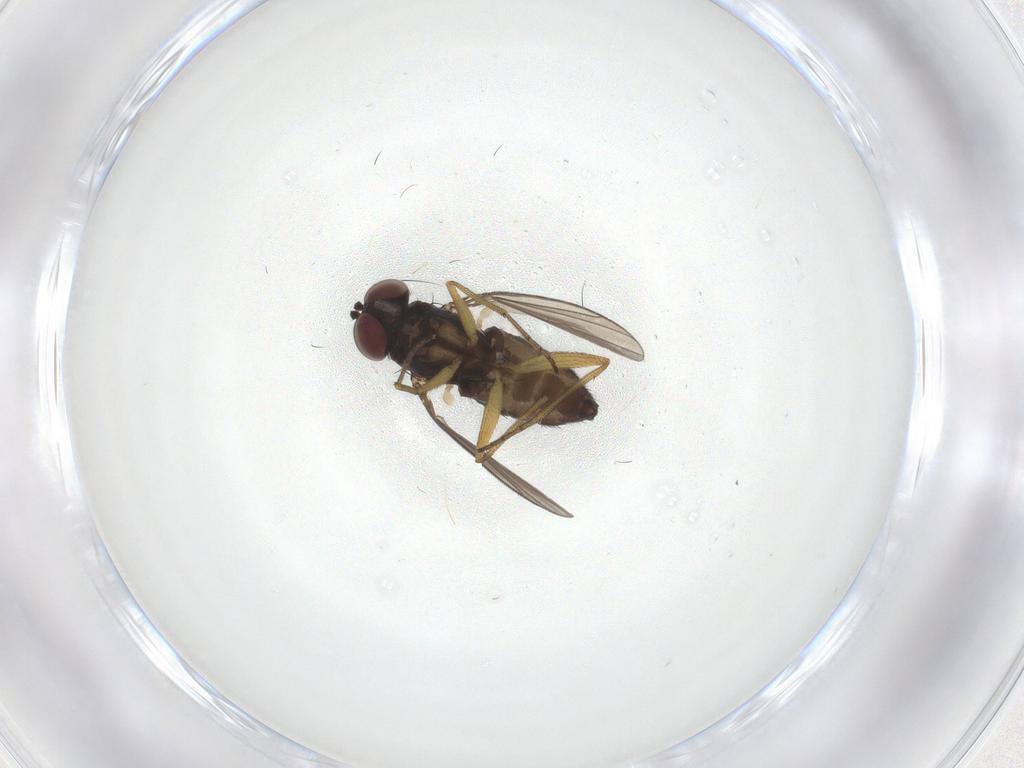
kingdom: Animalia
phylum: Arthropoda
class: Insecta
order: Diptera
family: Dolichopodidae
